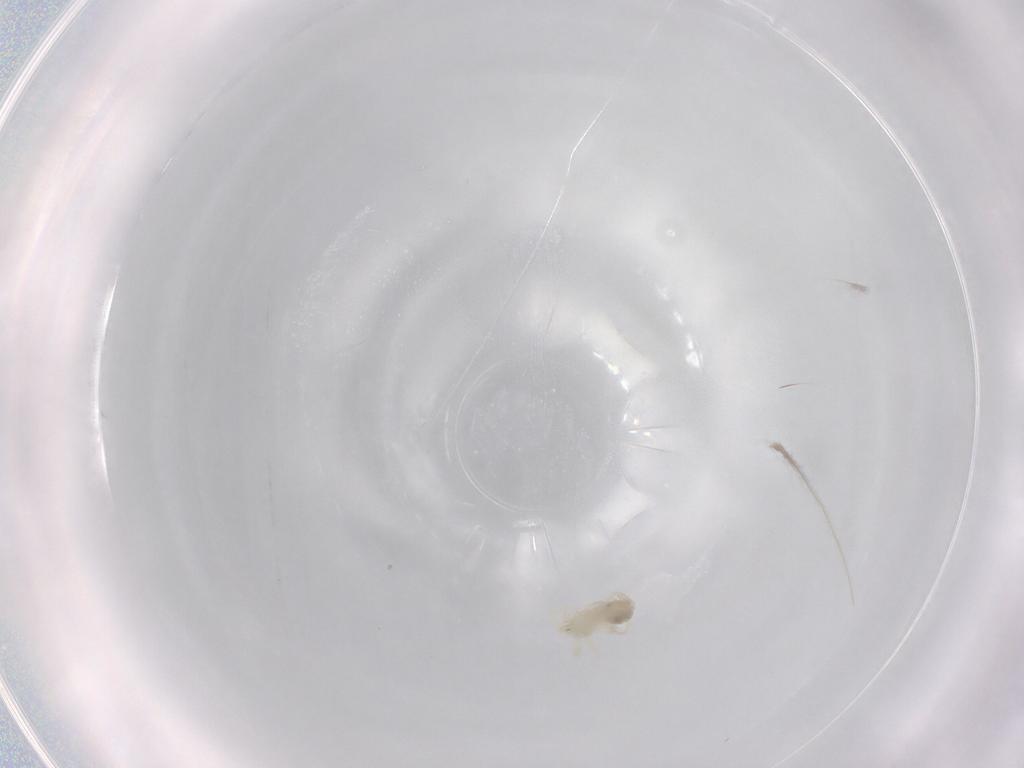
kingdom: Animalia
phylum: Arthropoda
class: Arachnida
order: Trombidiformes
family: Anystidae
